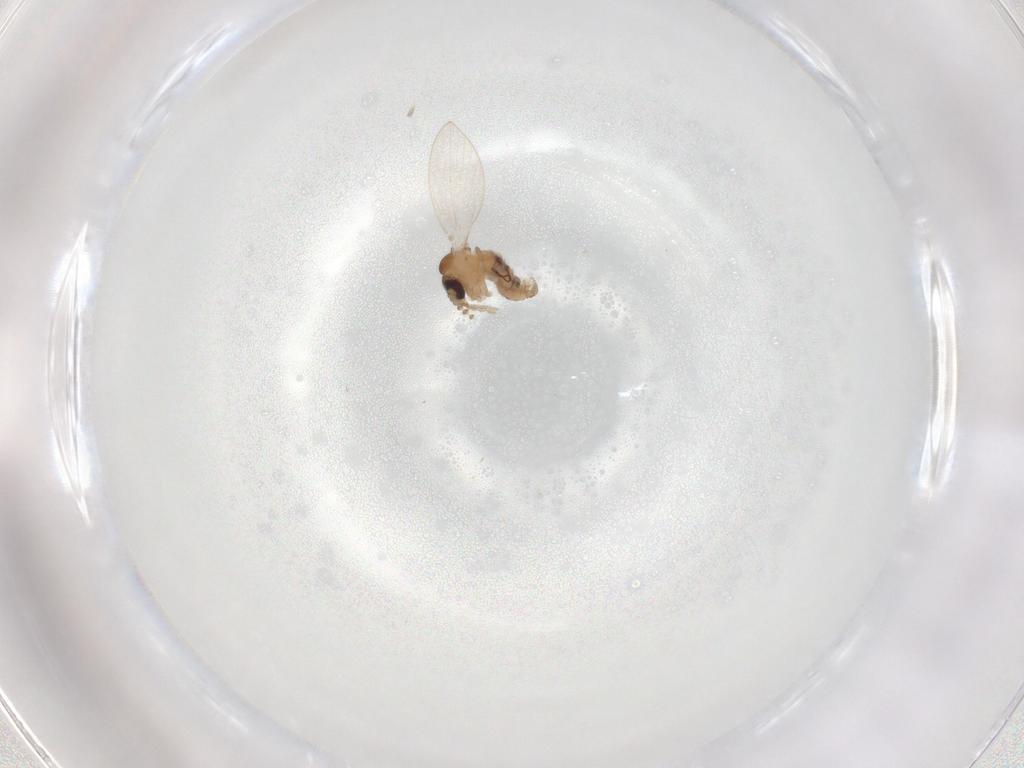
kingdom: Animalia
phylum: Arthropoda
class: Insecta
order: Diptera
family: Psychodidae
